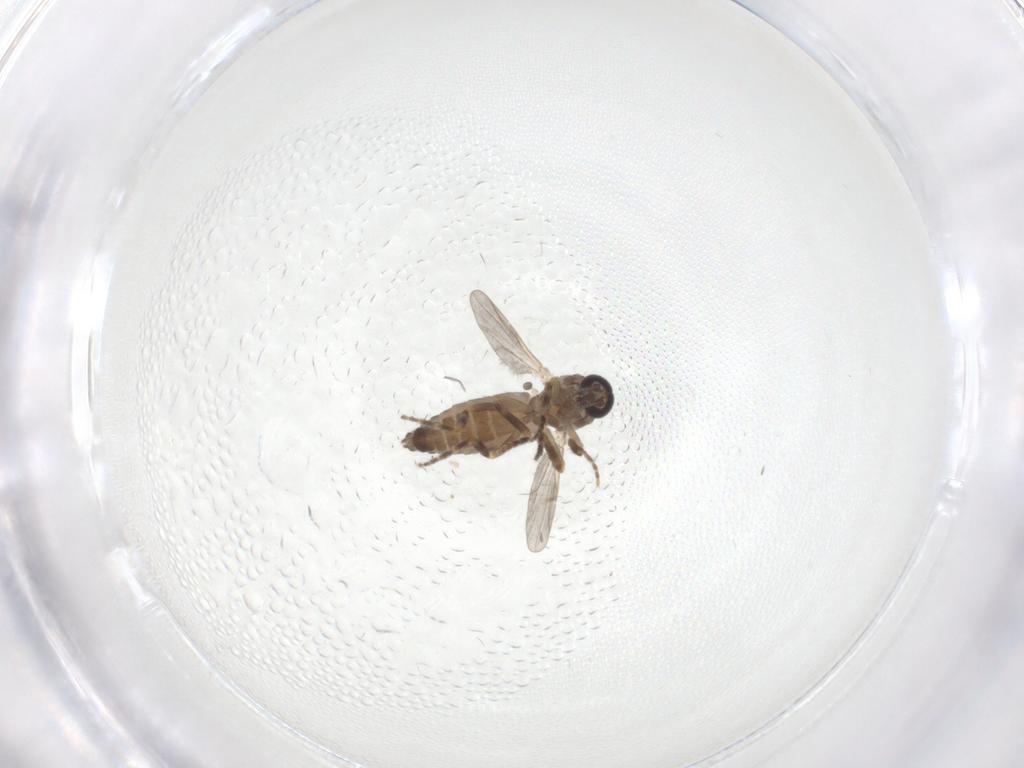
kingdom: Animalia
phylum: Arthropoda
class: Insecta
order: Diptera
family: Ceratopogonidae
